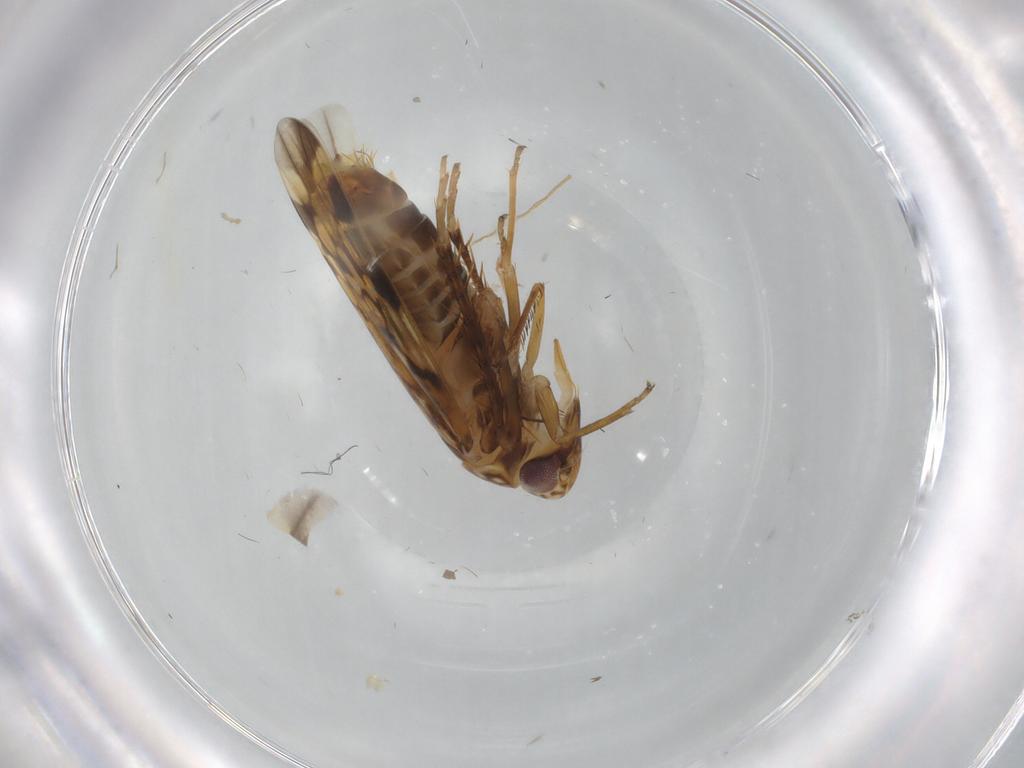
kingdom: Animalia
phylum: Arthropoda
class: Insecta
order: Hemiptera
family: Cicadellidae
